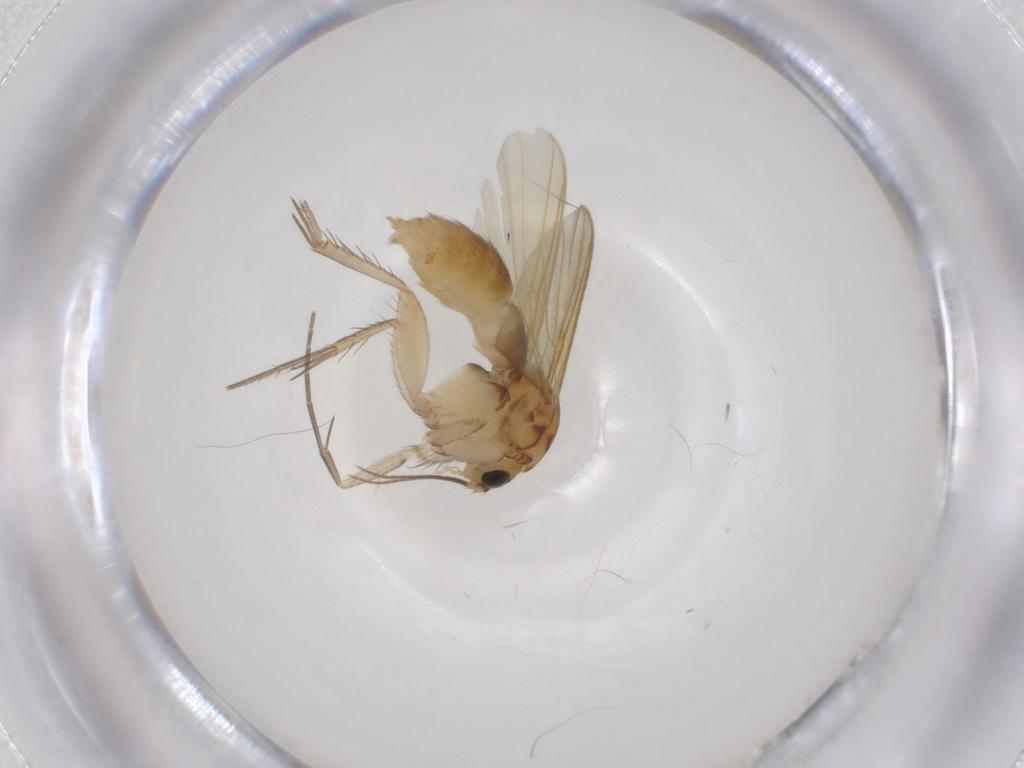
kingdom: Animalia
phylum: Arthropoda
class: Insecta
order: Diptera
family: Mycetophilidae
